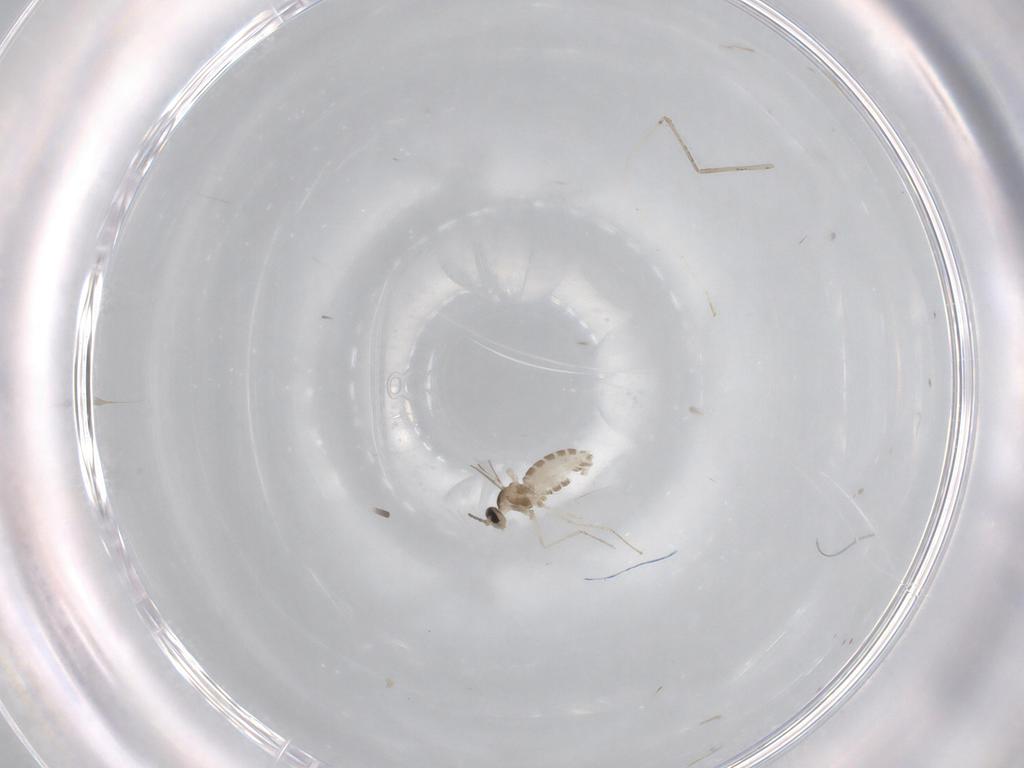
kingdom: Animalia
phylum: Arthropoda
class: Insecta
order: Diptera
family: Cecidomyiidae
